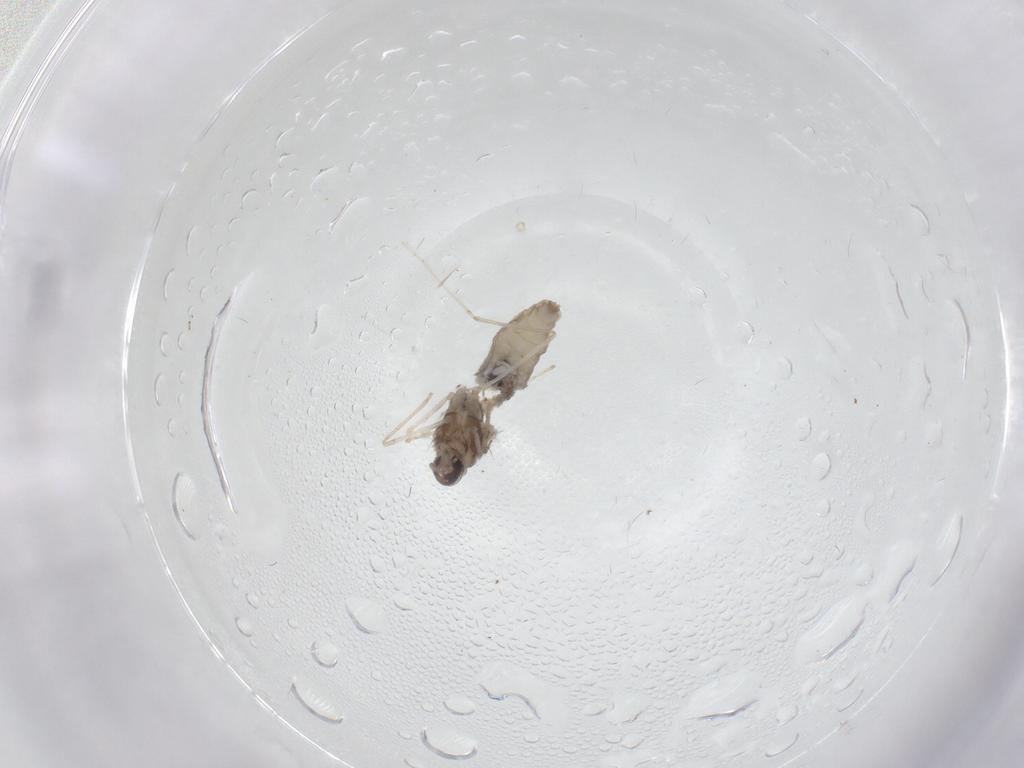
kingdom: Animalia
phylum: Arthropoda
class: Insecta
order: Diptera
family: Cecidomyiidae
